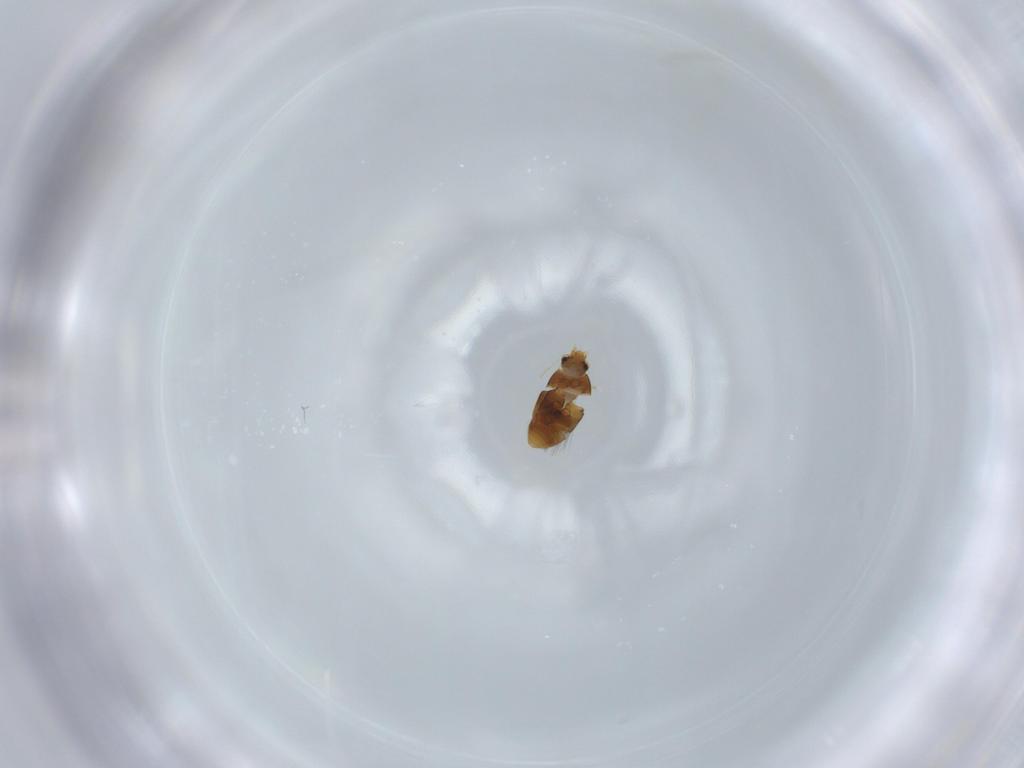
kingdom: Animalia
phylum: Arthropoda
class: Insecta
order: Coleoptera
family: Ptiliidae
